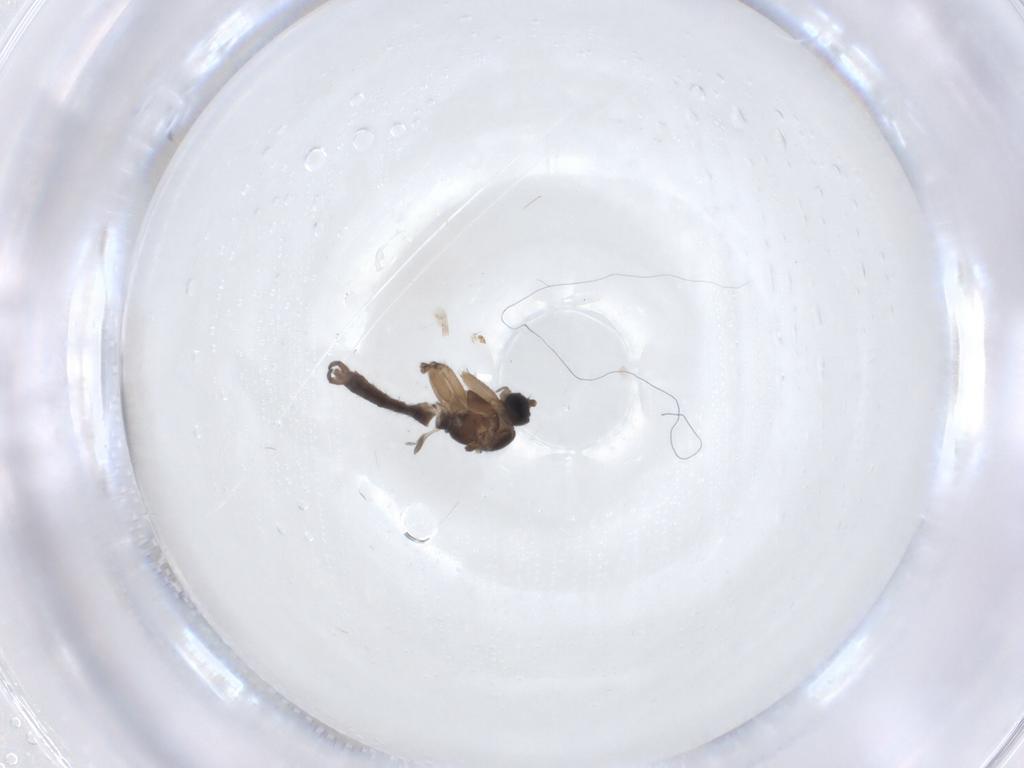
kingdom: Animalia
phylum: Arthropoda
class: Insecta
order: Diptera
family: Sciaridae
